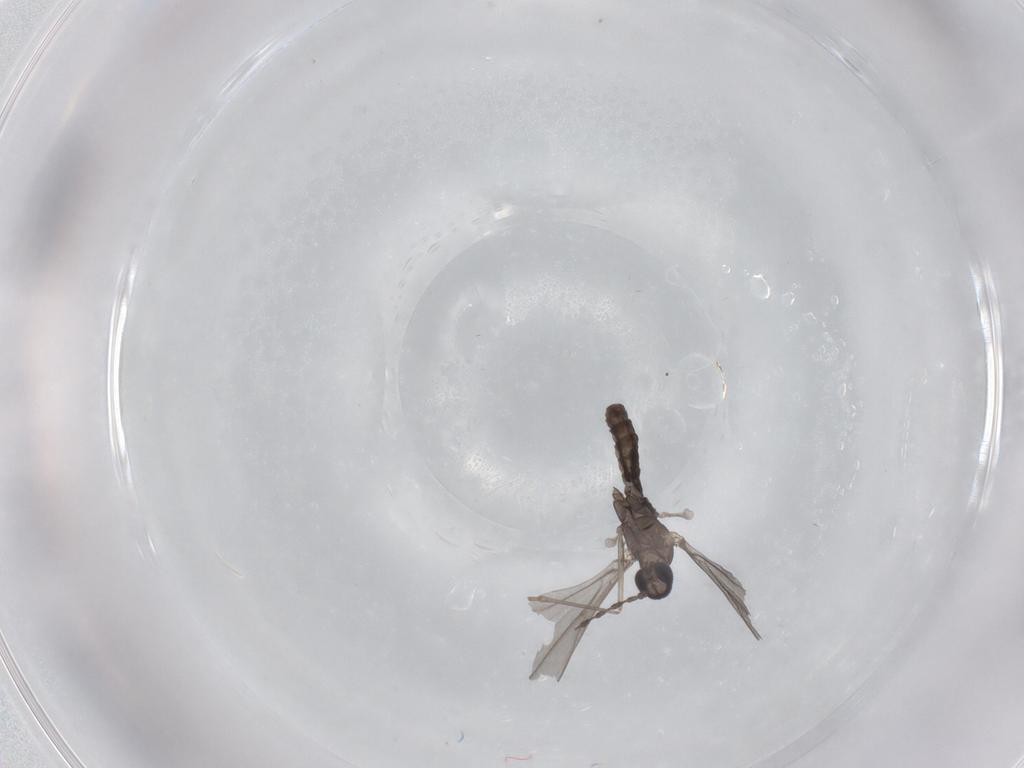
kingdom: Animalia
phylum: Arthropoda
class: Insecta
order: Diptera
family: Cecidomyiidae
